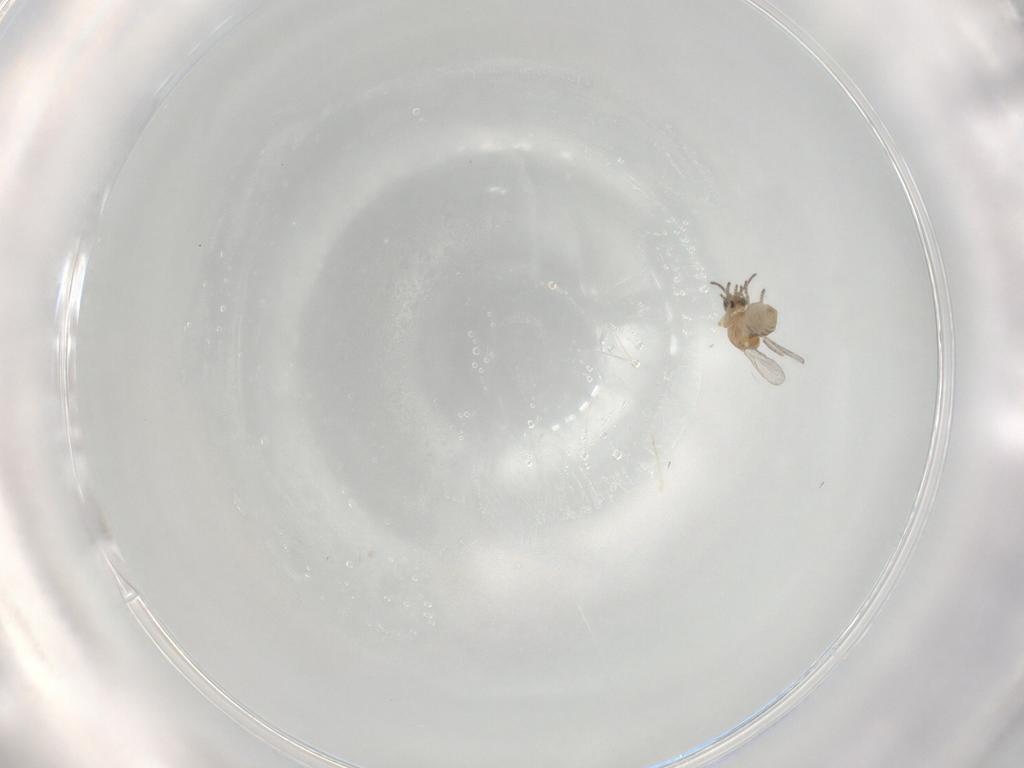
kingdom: Animalia
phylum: Arthropoda
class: Insecta
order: Diptera
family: Ceratopogonidae
